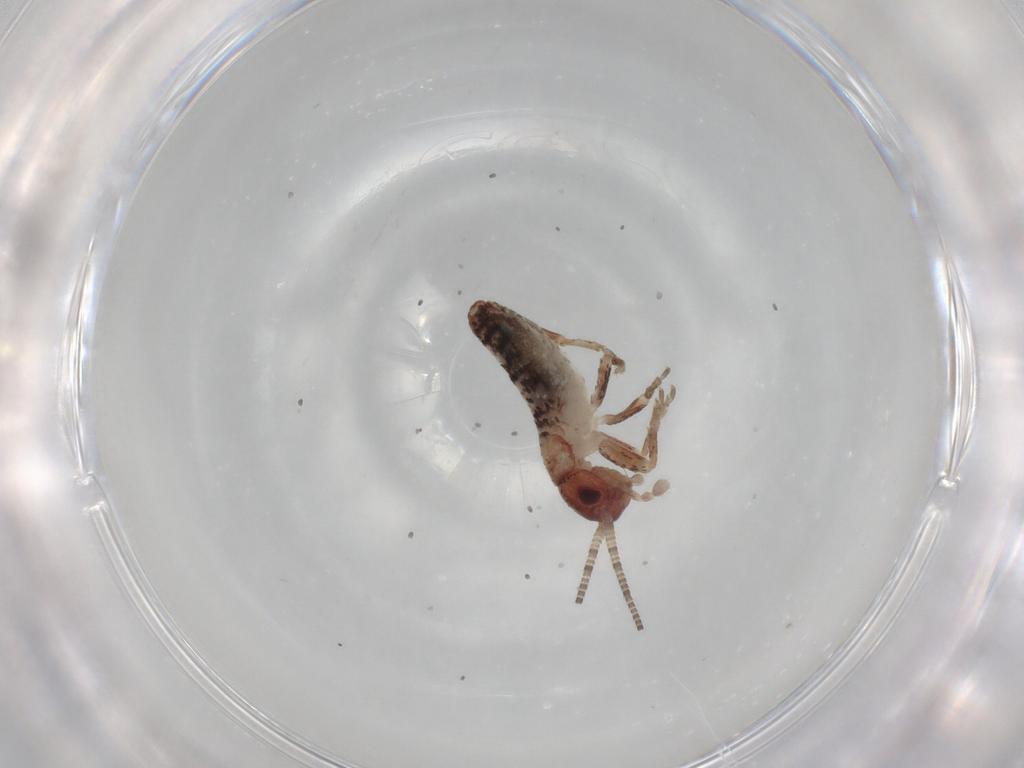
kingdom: Animalia
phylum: Arthropoda
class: Insecta
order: Orthoptera
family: Mogoplistidae
